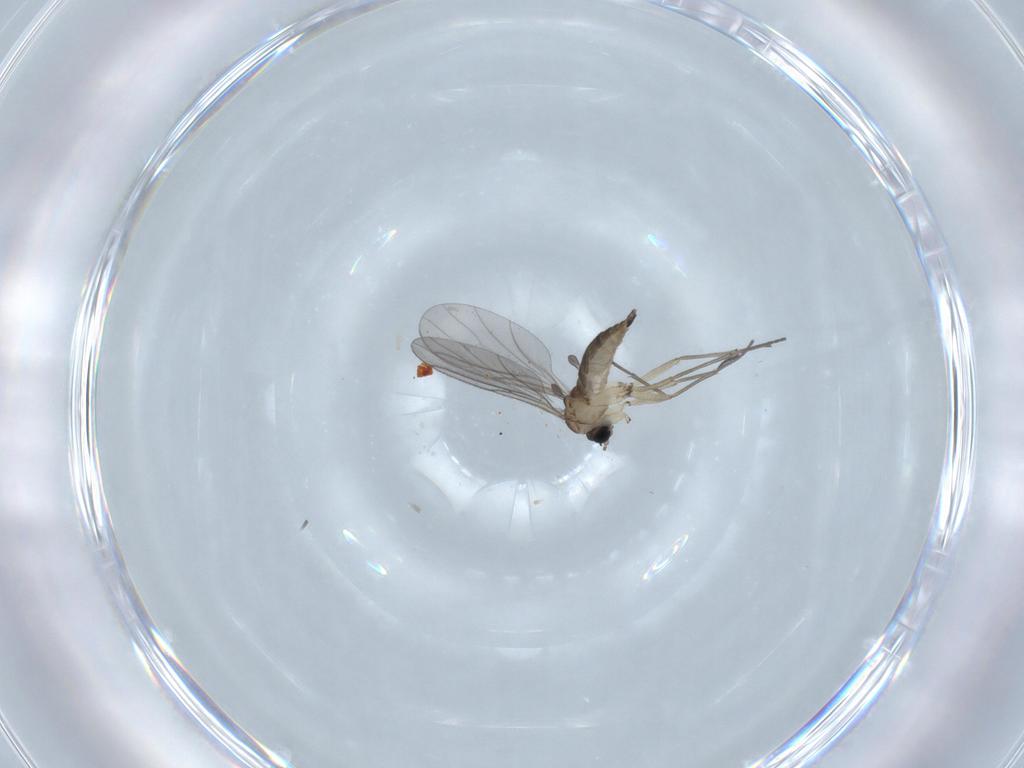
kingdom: Animalia
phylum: Arthropoda
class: Insecta
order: Diptera
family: Sciaridae
